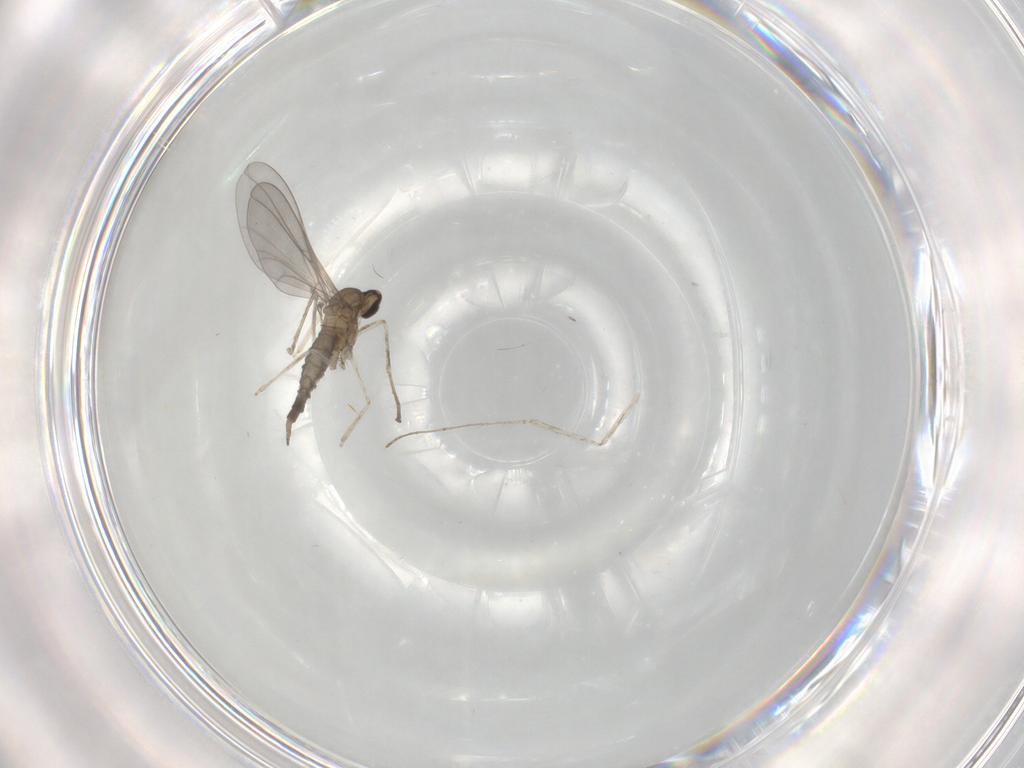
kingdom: Animalia
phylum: Arthropoda
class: Insecta
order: Diptera
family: Cecidomyiidae
